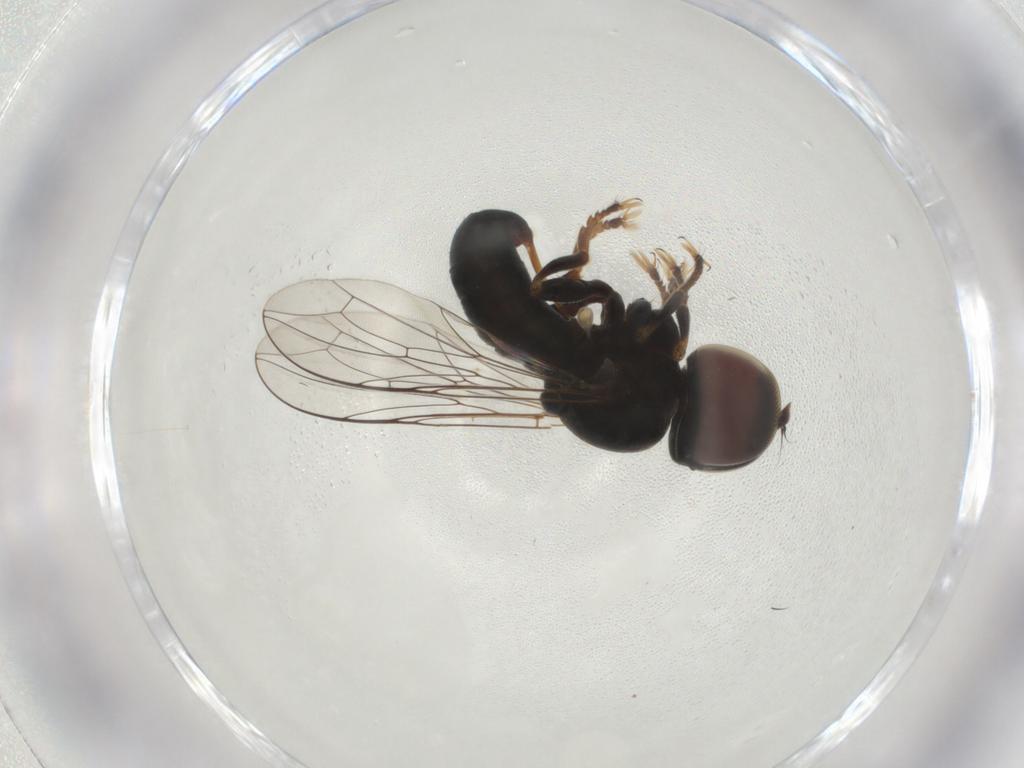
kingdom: Animalia
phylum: Arthropoda
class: Insecta
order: Diptera
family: Pipunculidae
